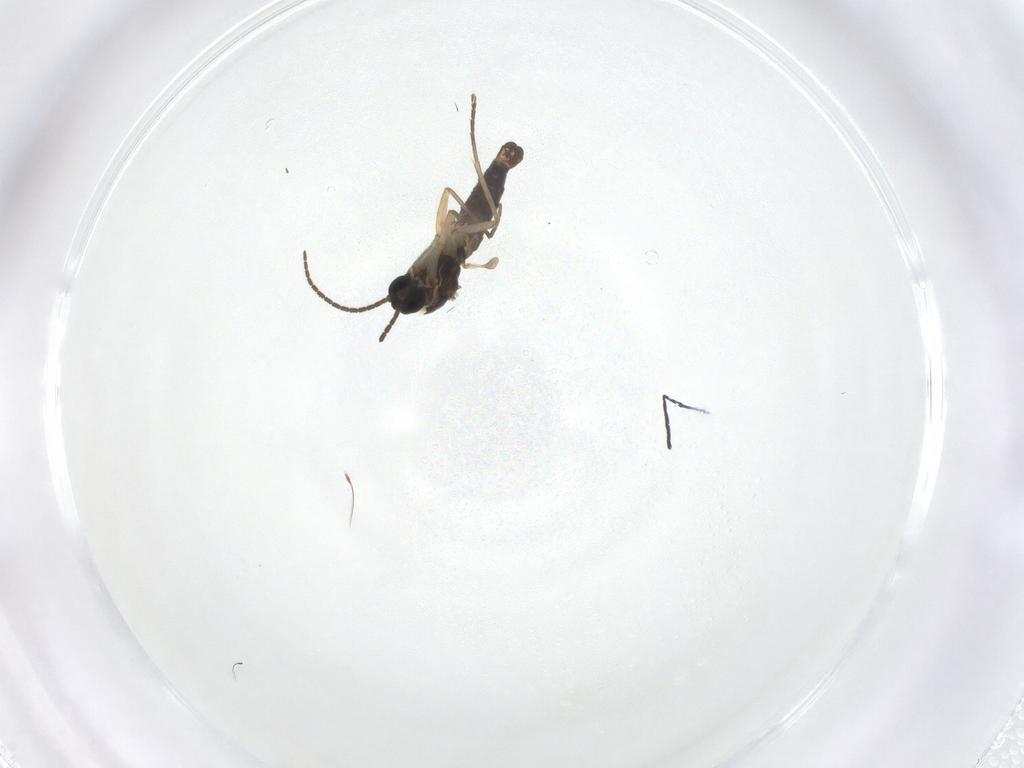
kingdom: Animalia
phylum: Arthropoda
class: Insecta
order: Diptera
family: Sciaridae
